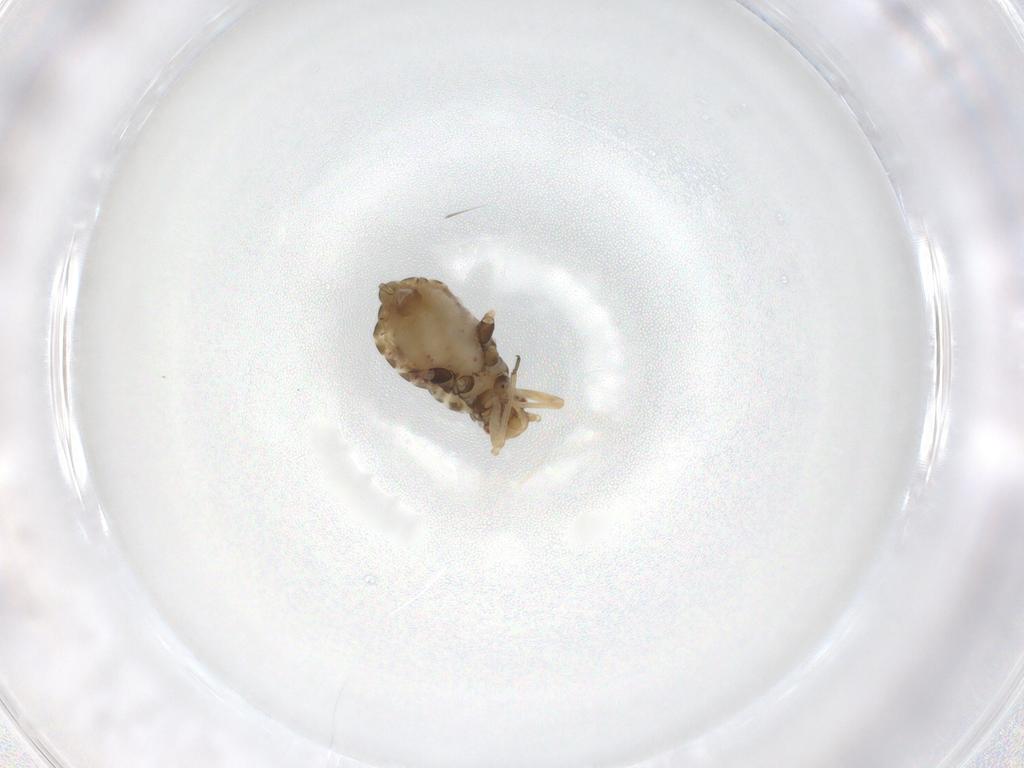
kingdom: Animalia
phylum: Arthropoda
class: Insecta
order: Hemiptera
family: Aphididae
